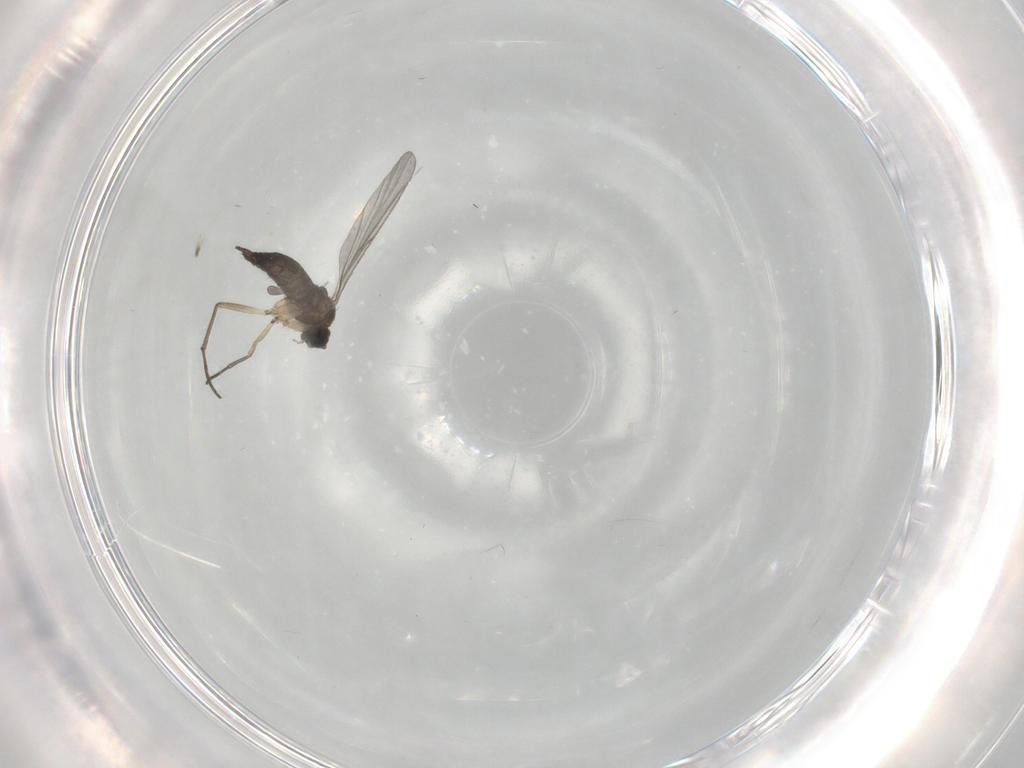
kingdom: Animalia
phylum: Arthropoda
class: Insecta
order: Diptera
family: Sciaridae
